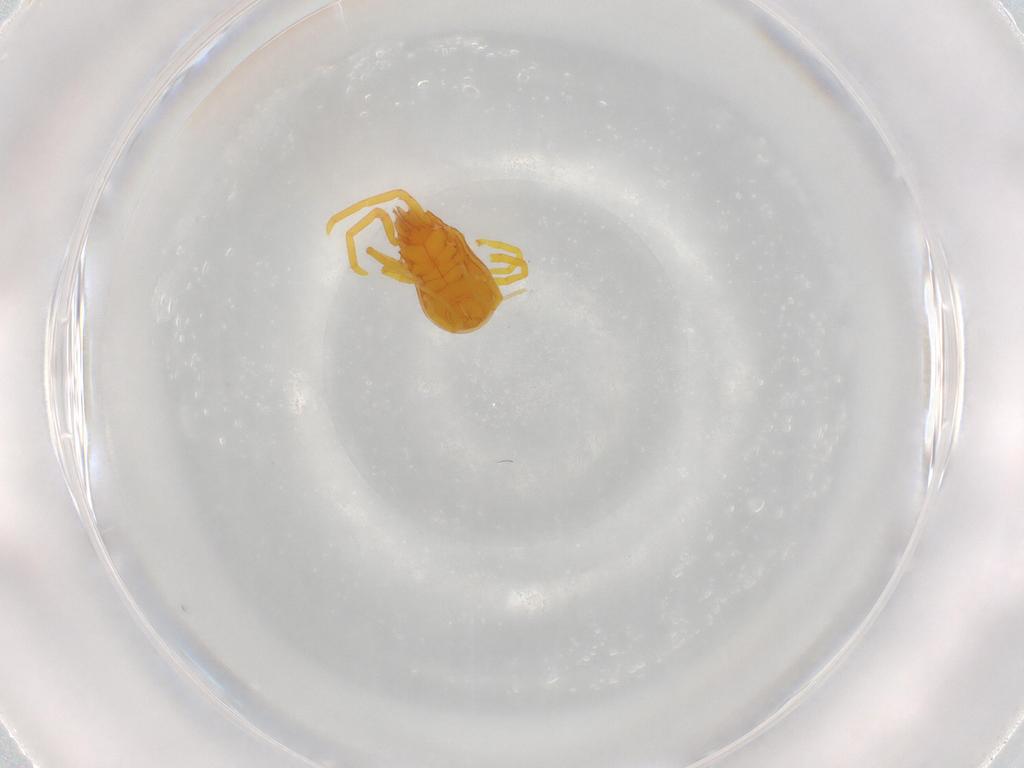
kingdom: Animalia
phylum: Arthropoda
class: Arachnida
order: Trombidiformes
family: Labidostommidae
